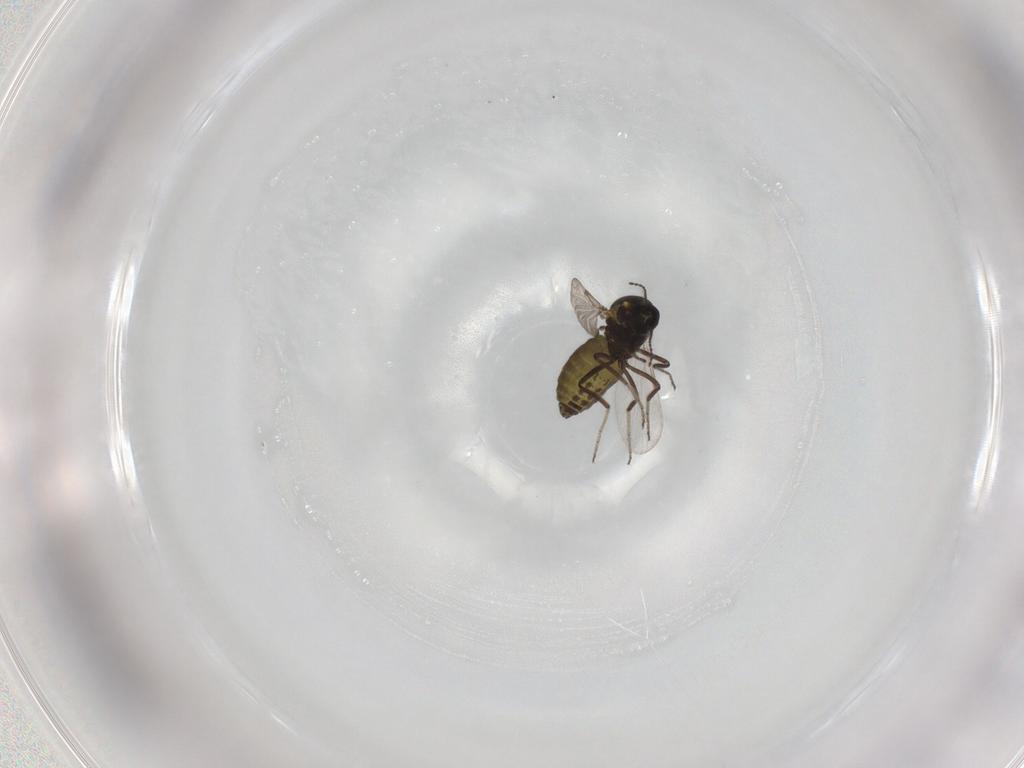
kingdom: Animalia
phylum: Arthropoda
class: Insecta
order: Diptera
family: Ceratopogonidae
